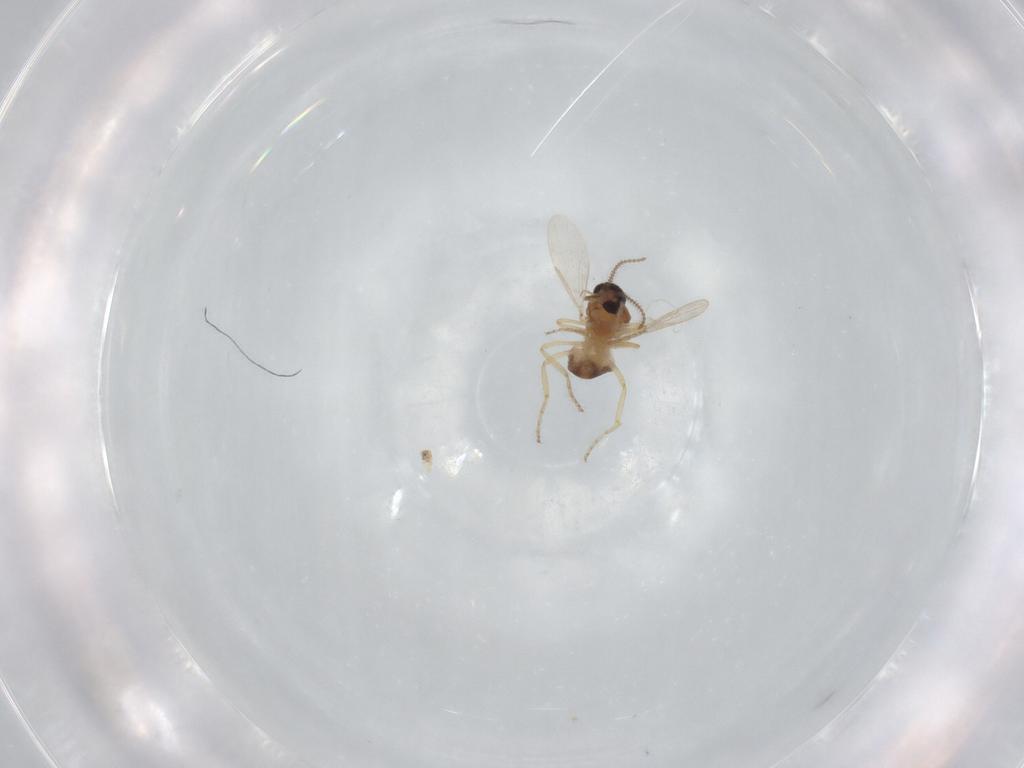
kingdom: Animalia
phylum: Arthropoda
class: Insecta
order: Diptera
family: Ceratopogonidae
